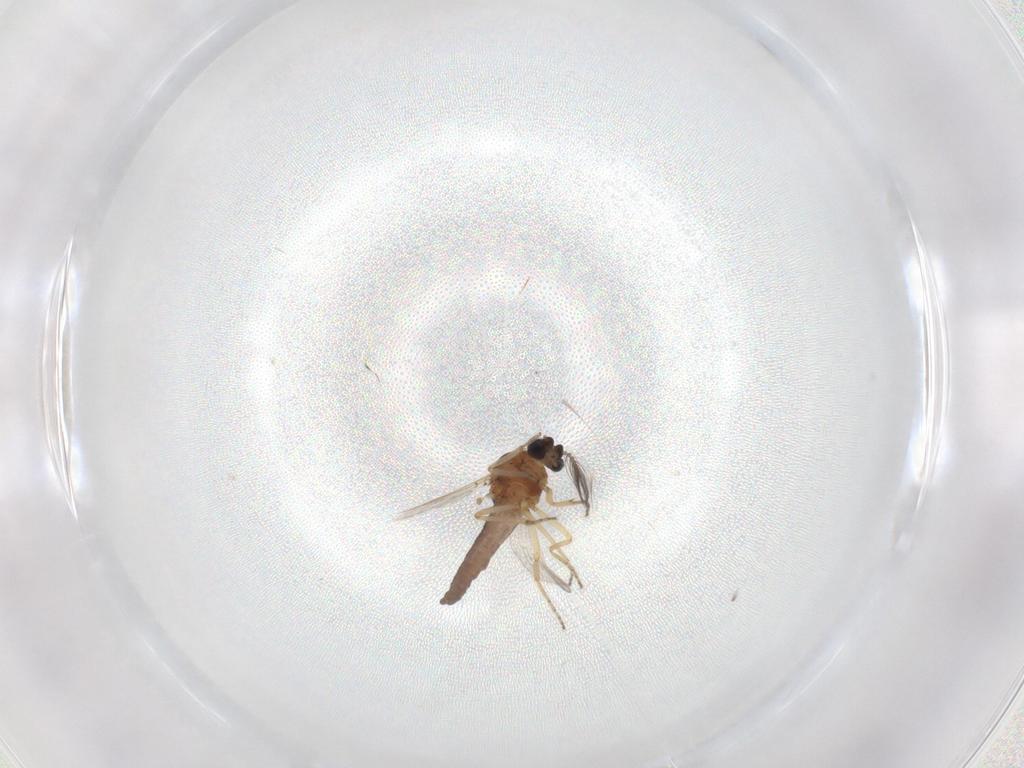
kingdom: Animalia
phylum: Arthropoda
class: Insecta
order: Diptera
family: Ceratopogonidae
